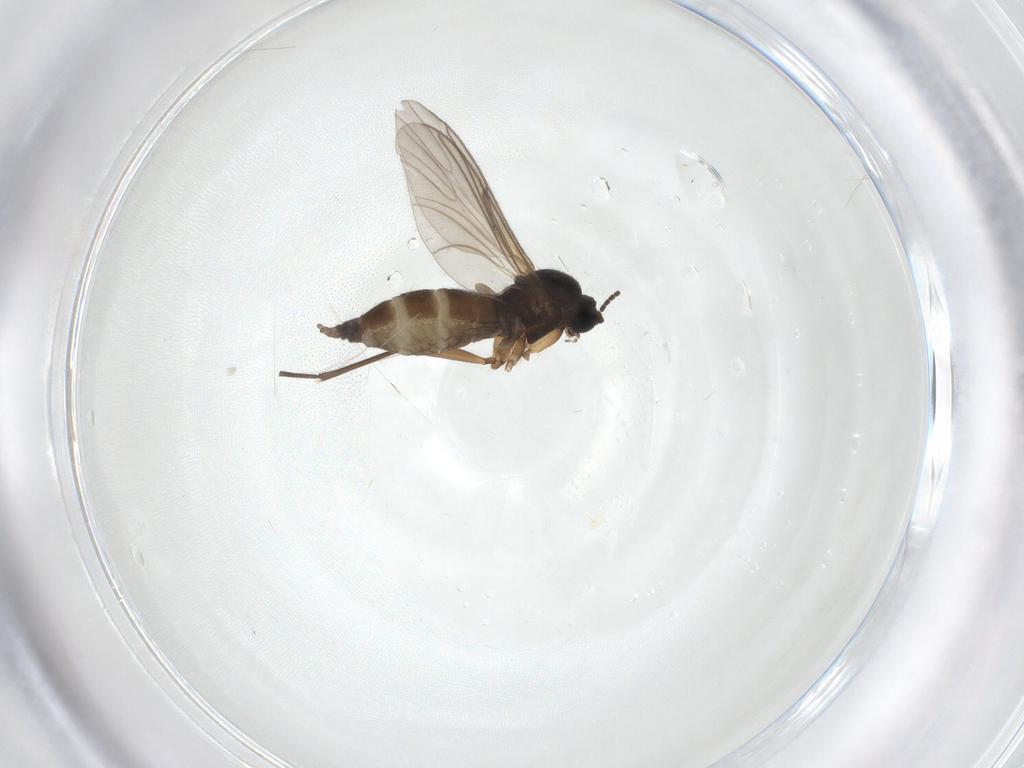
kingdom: Animalia
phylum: Arthropoda
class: Insecta
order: Diptera
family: Sciaridae
